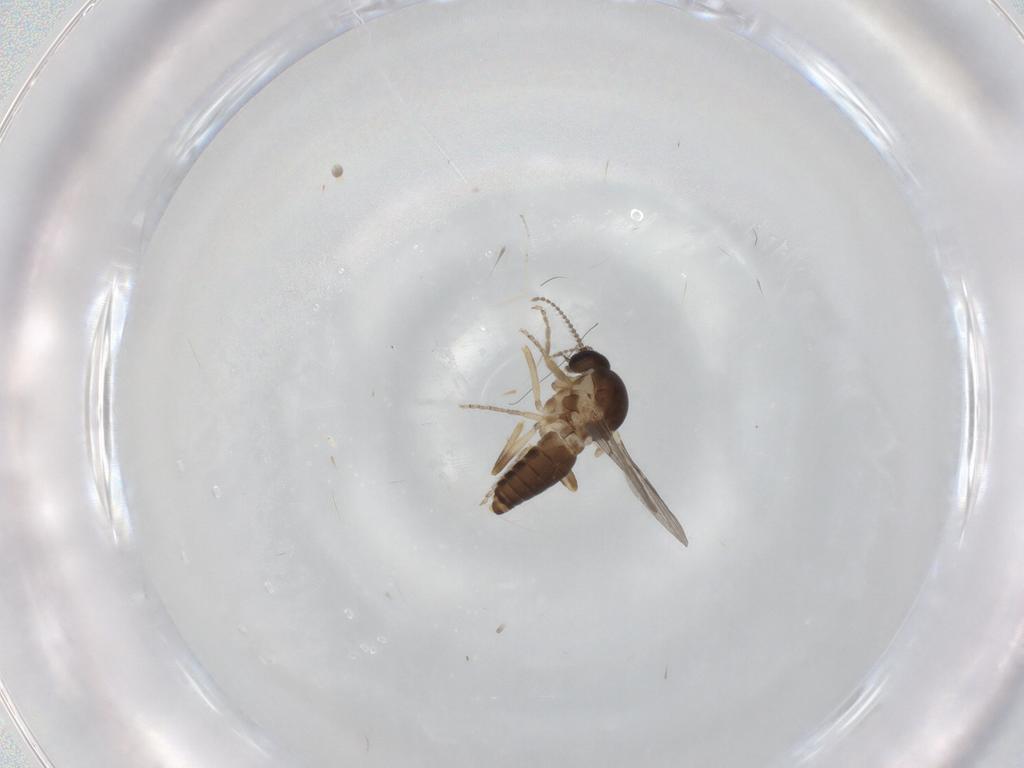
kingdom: Animalia
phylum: Arthropoda
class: Insecta
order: Diptera
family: Ceratopogonidae
